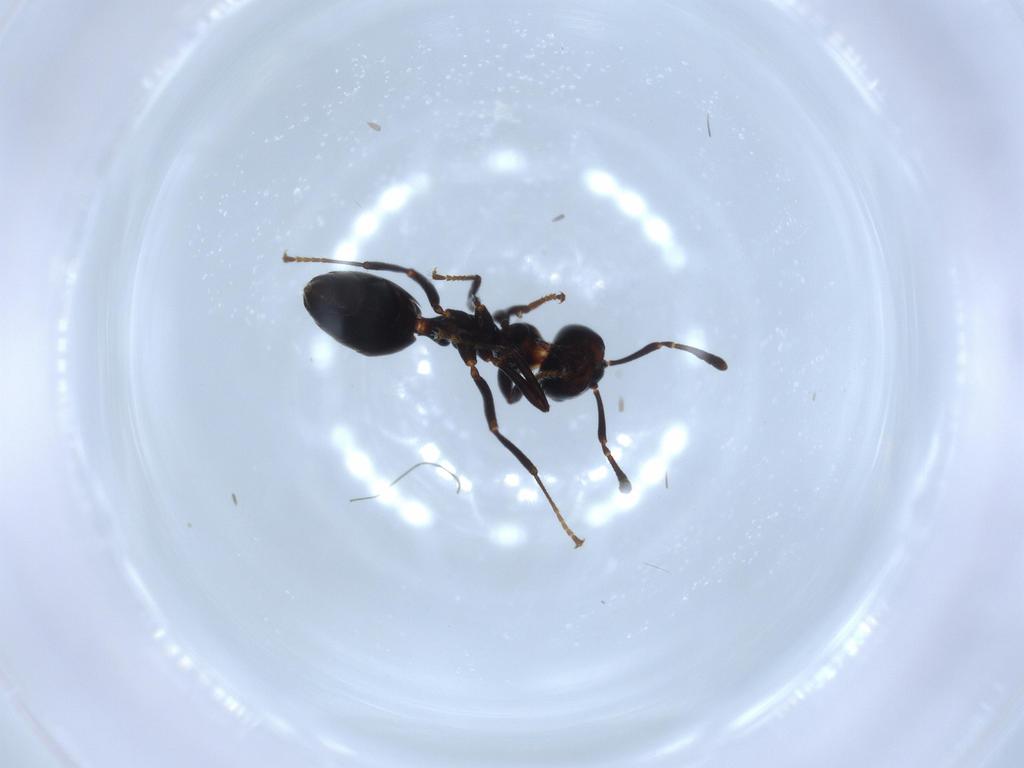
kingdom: Animalia
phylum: Arthropoda
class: Insecta
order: Hymenoptera
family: Formicidae
